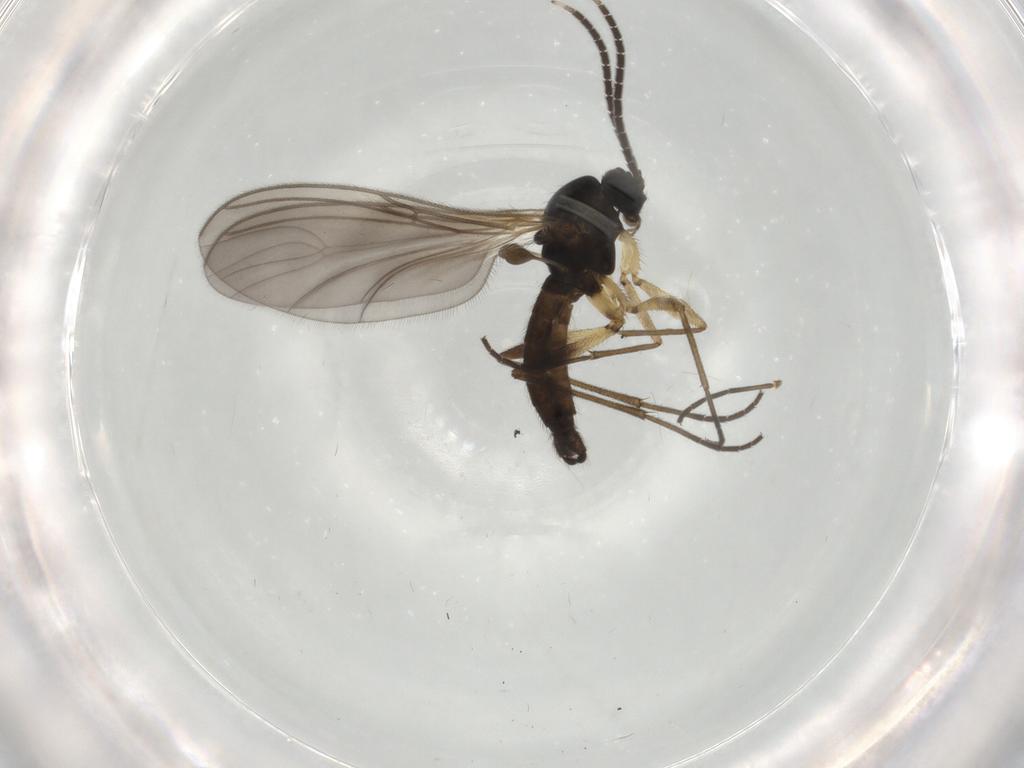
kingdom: Animalia
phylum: Arthropoda
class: Insecta
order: Diptera
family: Sciaridae
